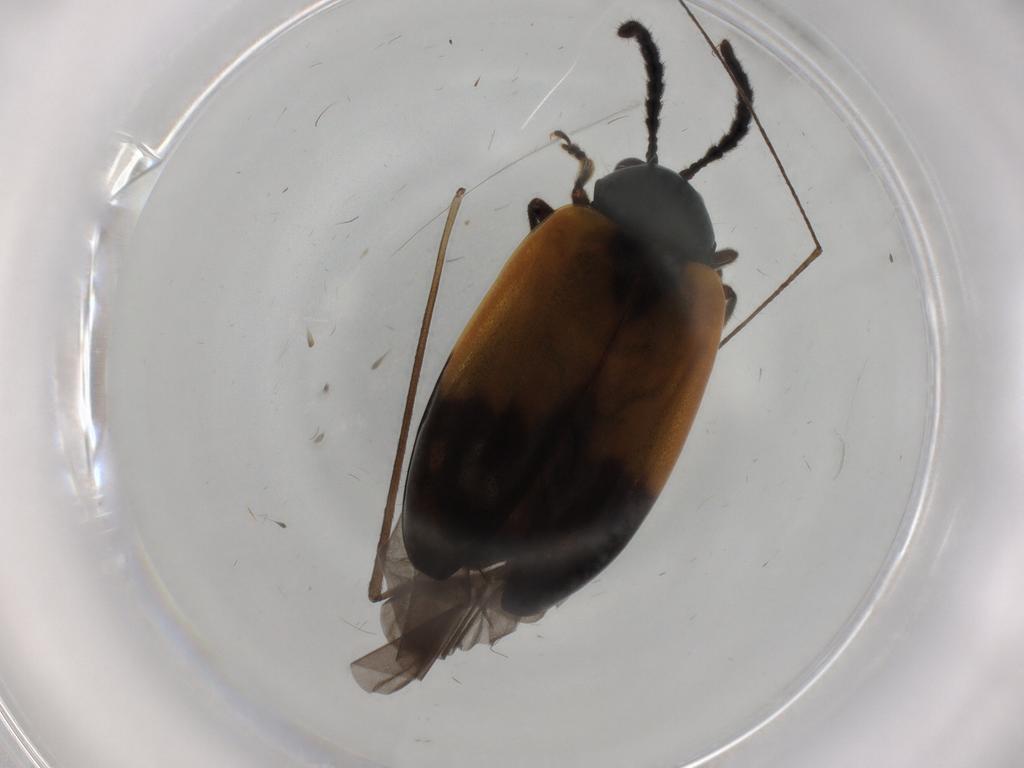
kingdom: Animalia
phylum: Arthropoda
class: Insecta
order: Coleoptera
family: Chrysomelidae
